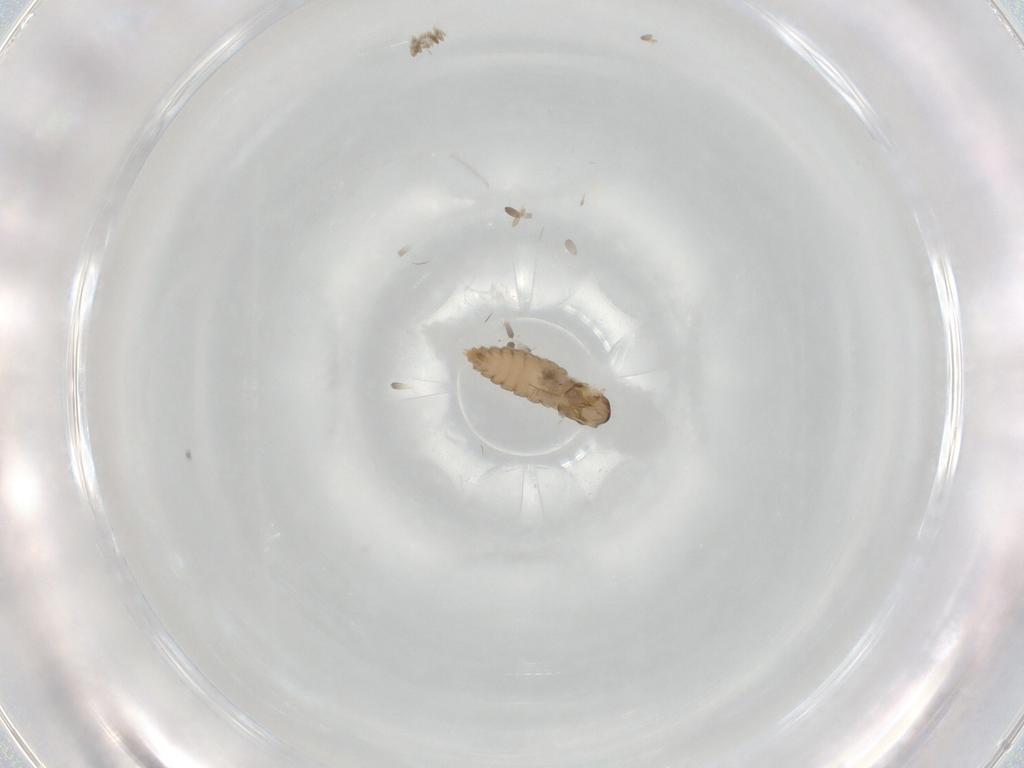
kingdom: Animalia
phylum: Arthropoda
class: Insecta
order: Diptera
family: Cecidomyiidae
